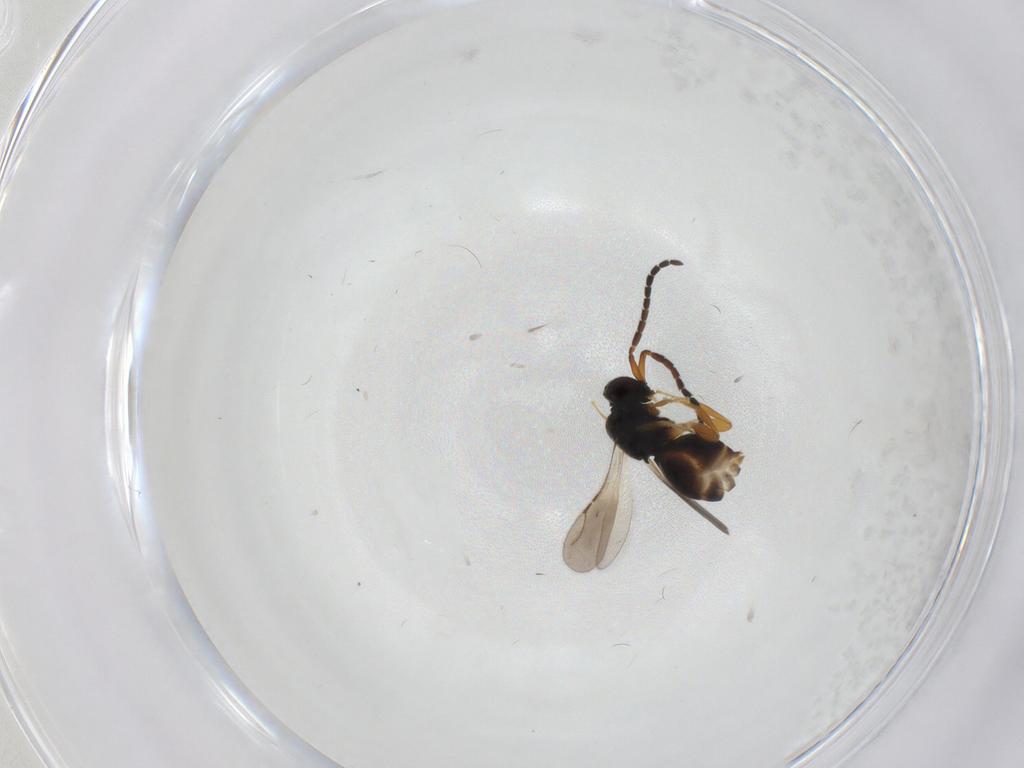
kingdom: Animalia
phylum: Arthropoda
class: Insecta
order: Hymenoptera
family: Ceraphronidae
